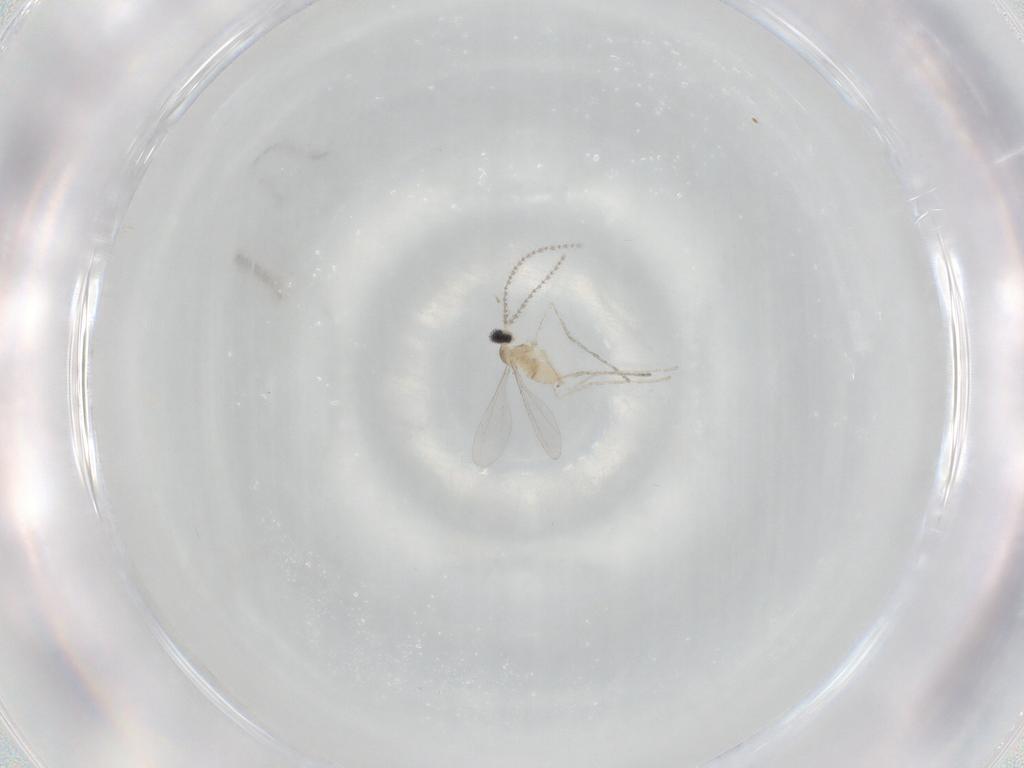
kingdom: Animalia
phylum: Arthropoda
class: Insecta
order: Diptera
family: Cecidomyiidae
